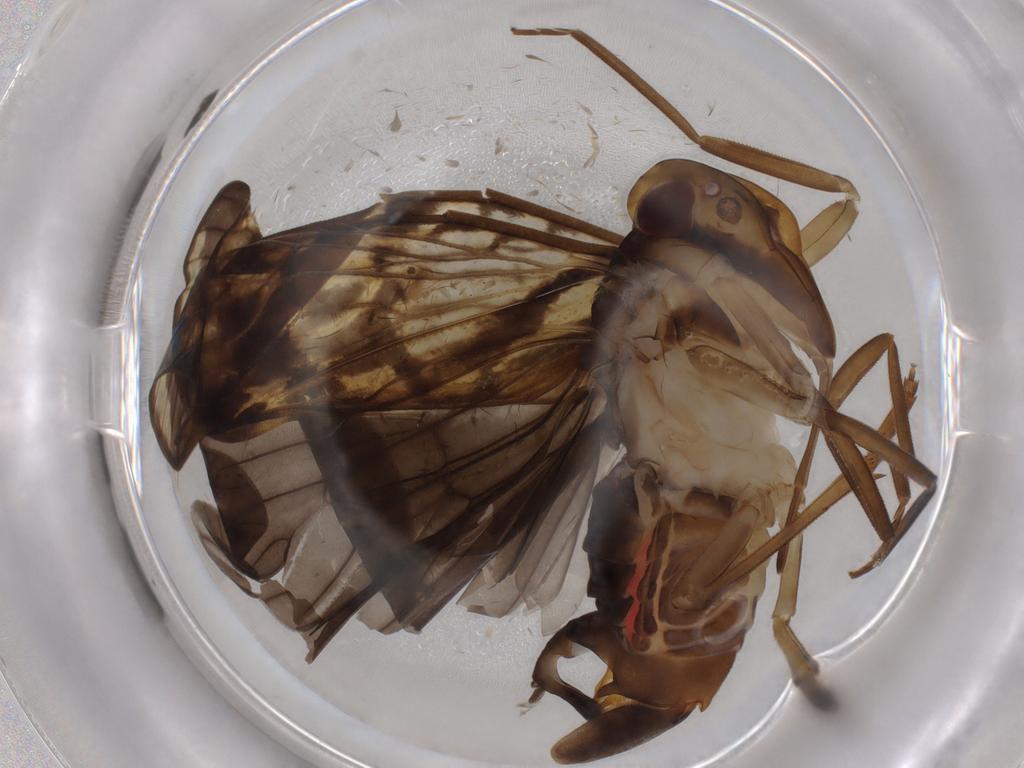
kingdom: Animalia
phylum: Arthropoda
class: Insecta
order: Hemiptera
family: Cixiidae
